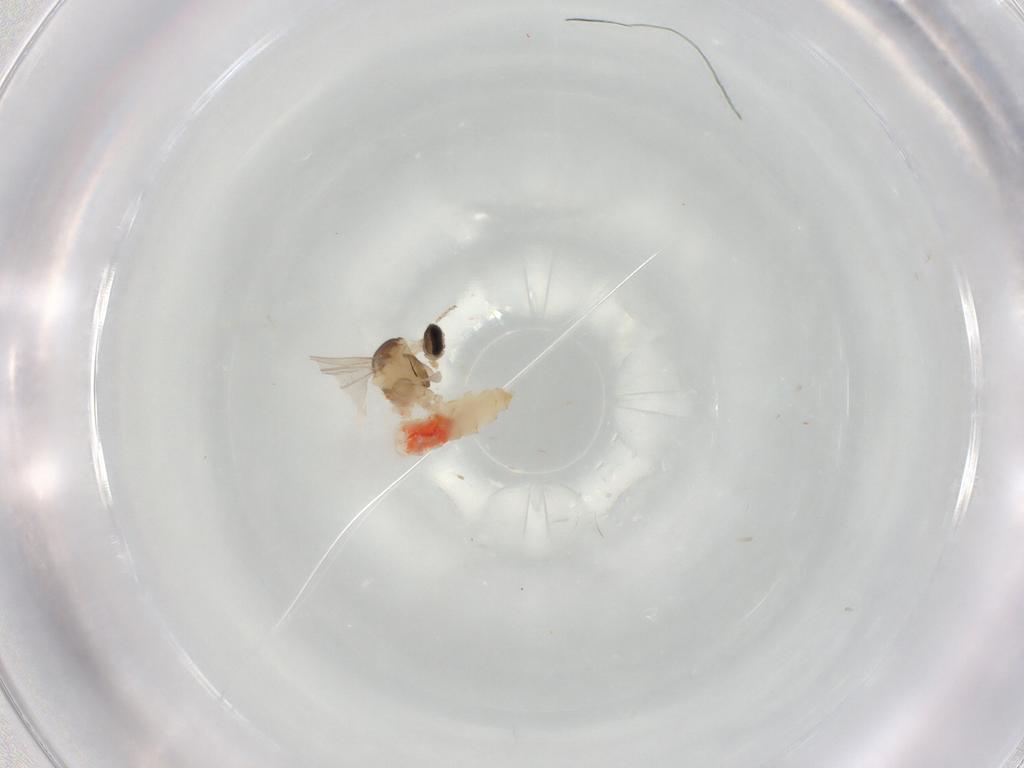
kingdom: Animalia
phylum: Arthropoda
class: Insecta
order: Diptera
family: Cecidomyiidae
